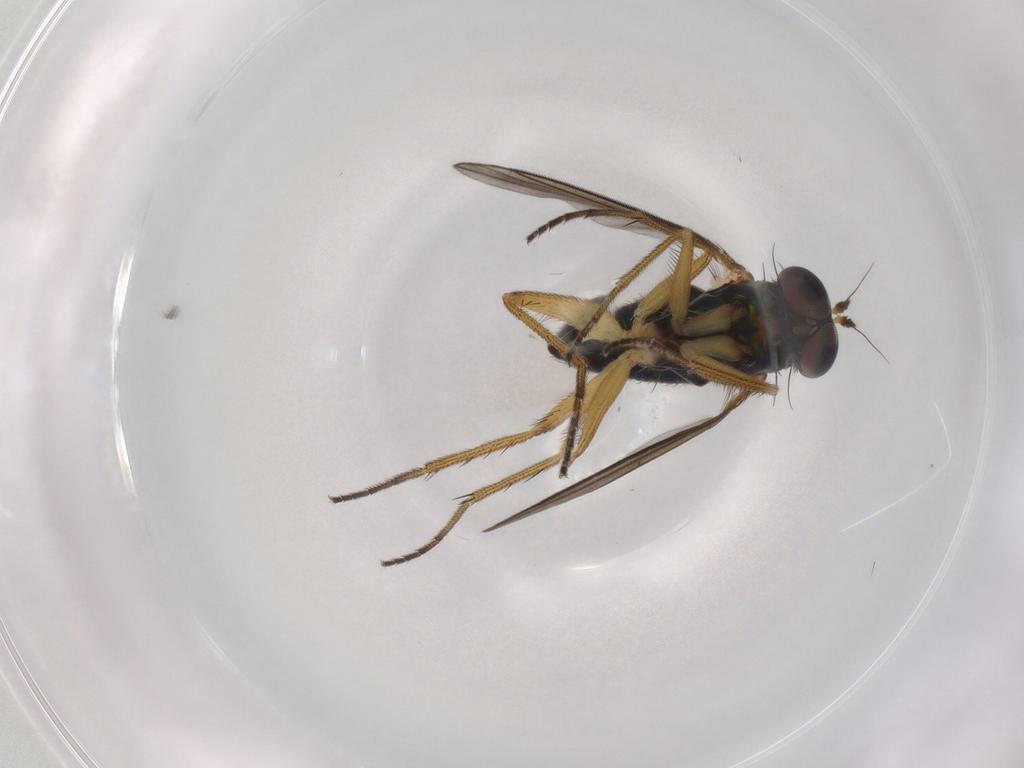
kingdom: Animalia
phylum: Arthropoda
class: Insecta
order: Diptera
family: Dolichopodidae
